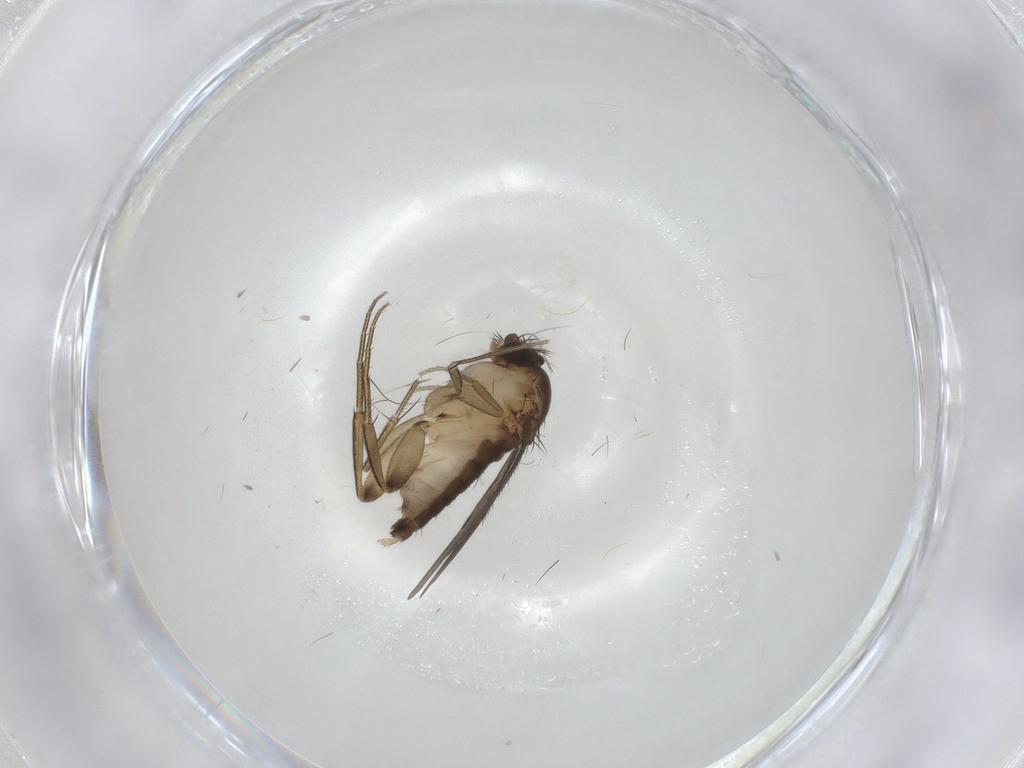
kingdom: Animalia
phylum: Arthropoda
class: Insecta
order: Diptera
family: Phoridae
